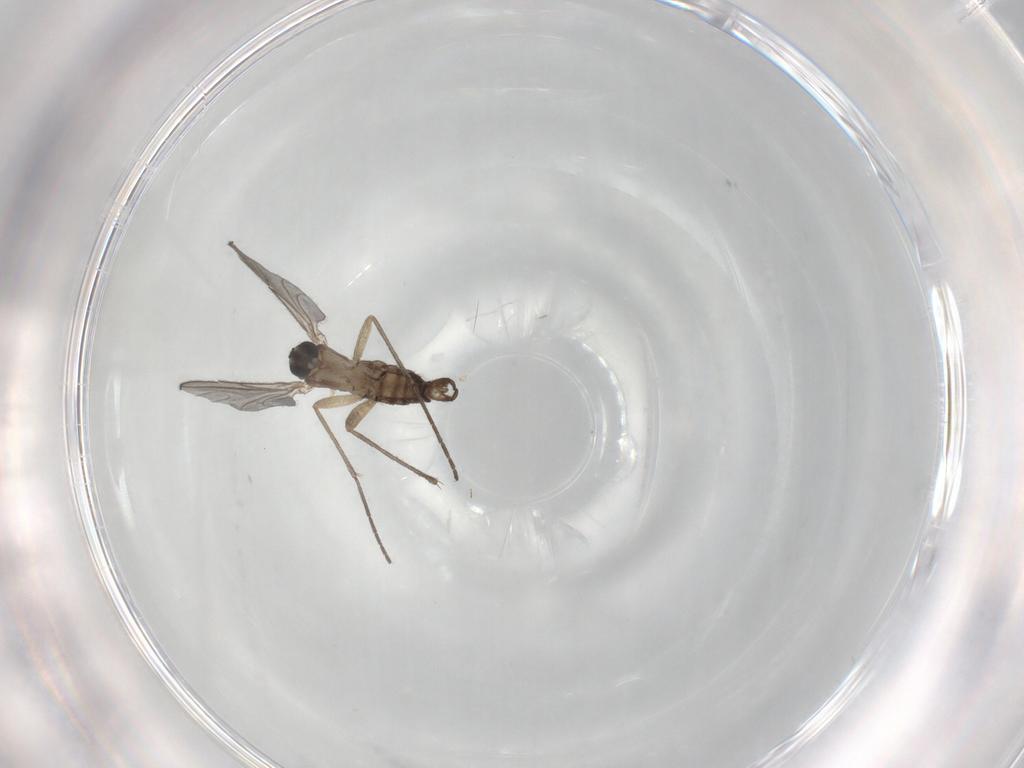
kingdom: Animalia
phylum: Arthropoda
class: Insecta
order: Diptera
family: Sciaridae
